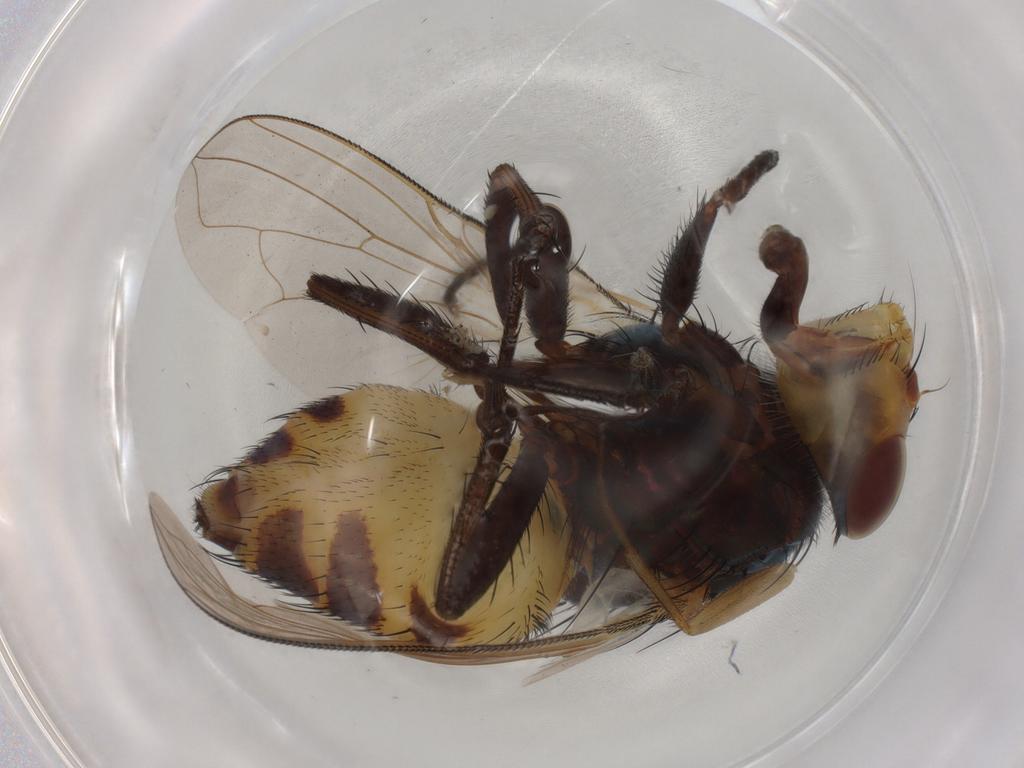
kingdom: Animalia
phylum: Arthropoda
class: Insecta
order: Diptera
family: Calliphoridae
